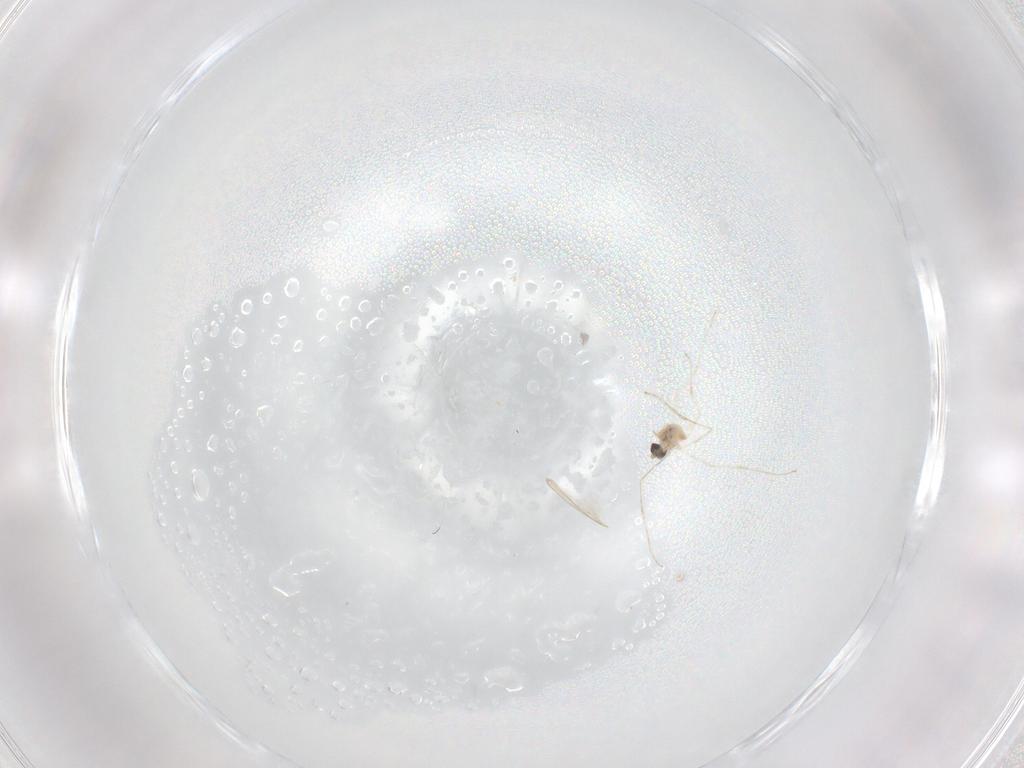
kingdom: Animalia
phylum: Arthropoda
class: Insecta
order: Diptera
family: Cecidomyiidae
